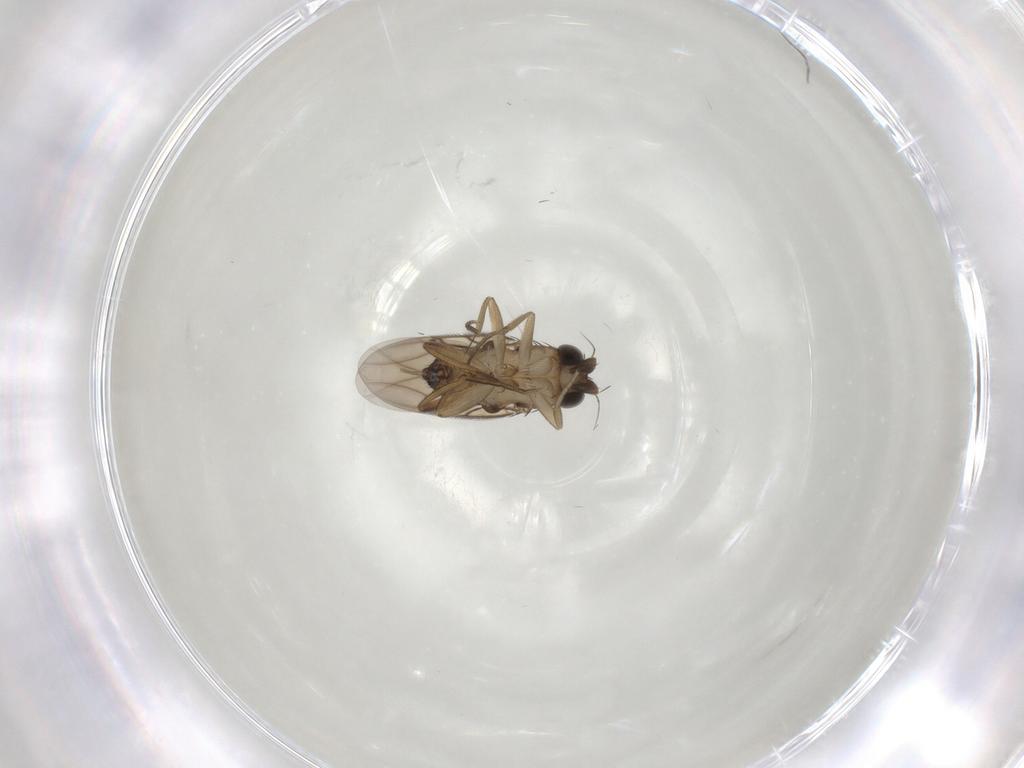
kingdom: Animalia
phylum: Arthropoda
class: Insecta
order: Diptera
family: Phoridae
